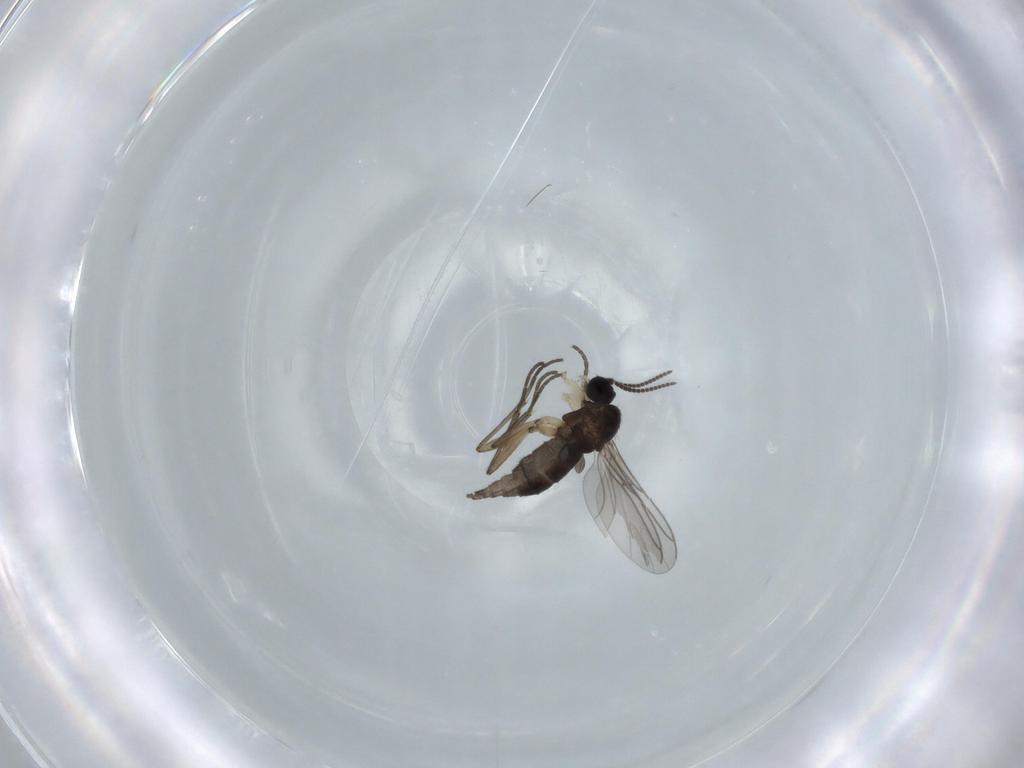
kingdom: Animalia
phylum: Arthropoda
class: Insecta
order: Diptera
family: Sciaridae
